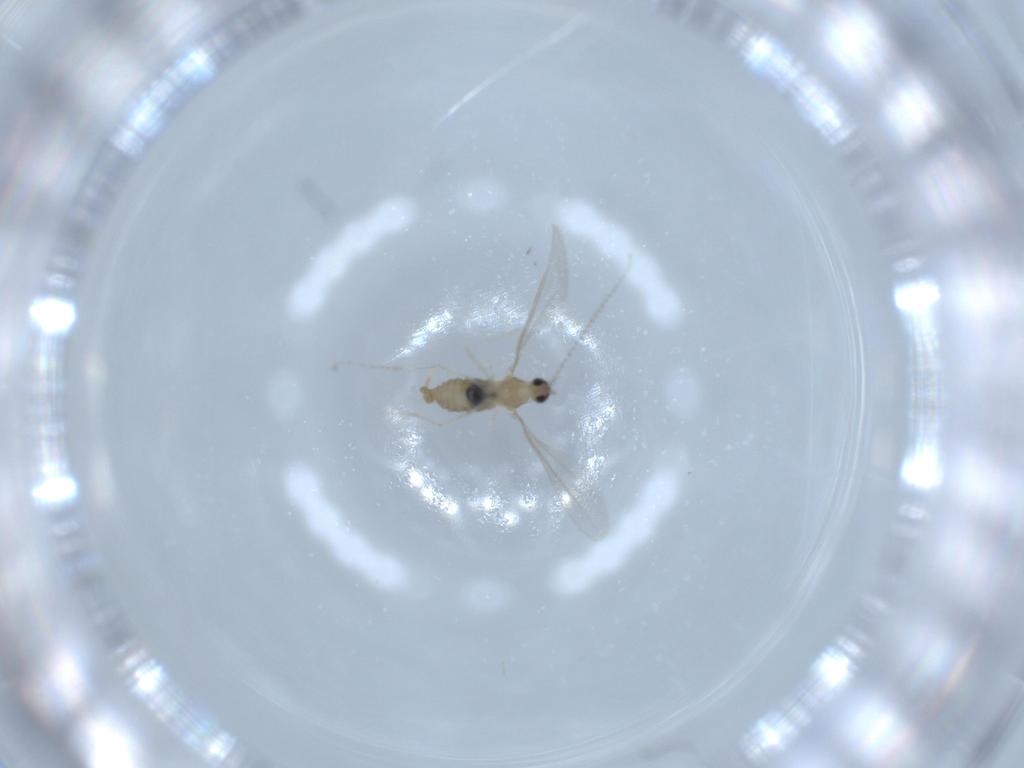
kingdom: Animalia
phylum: Arthropoda
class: Insecta
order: Diptera
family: Cecidomyiidae
